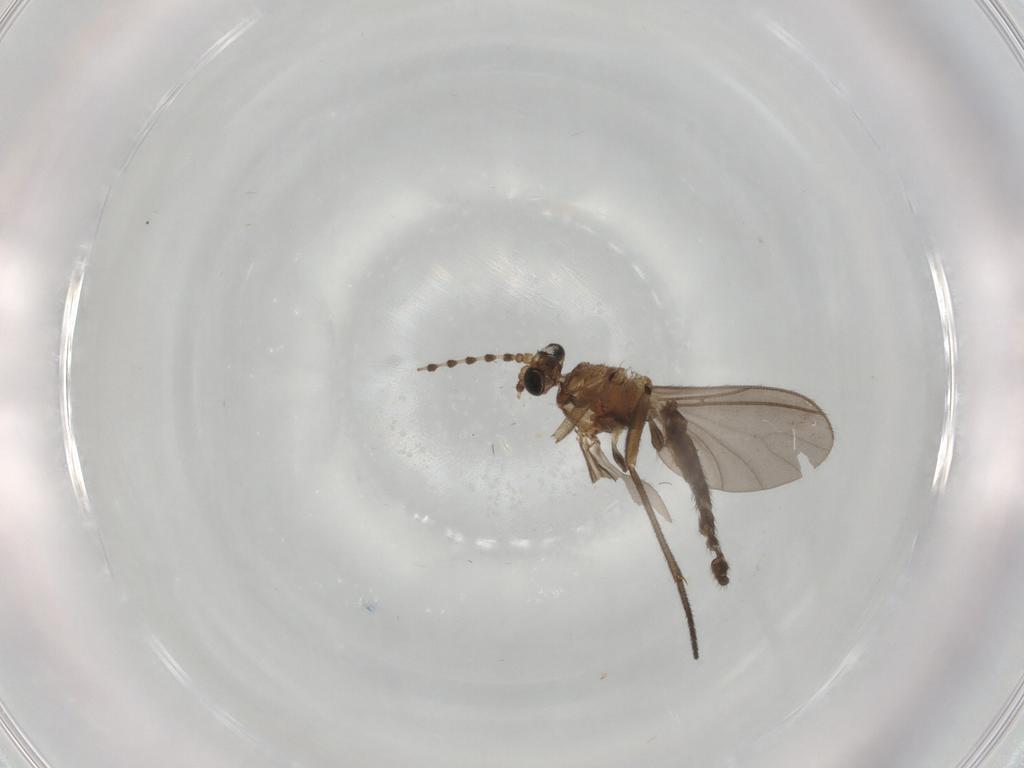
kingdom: Animalia
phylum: Arthropoda
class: Insecta
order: Diptera
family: Sciaridae
